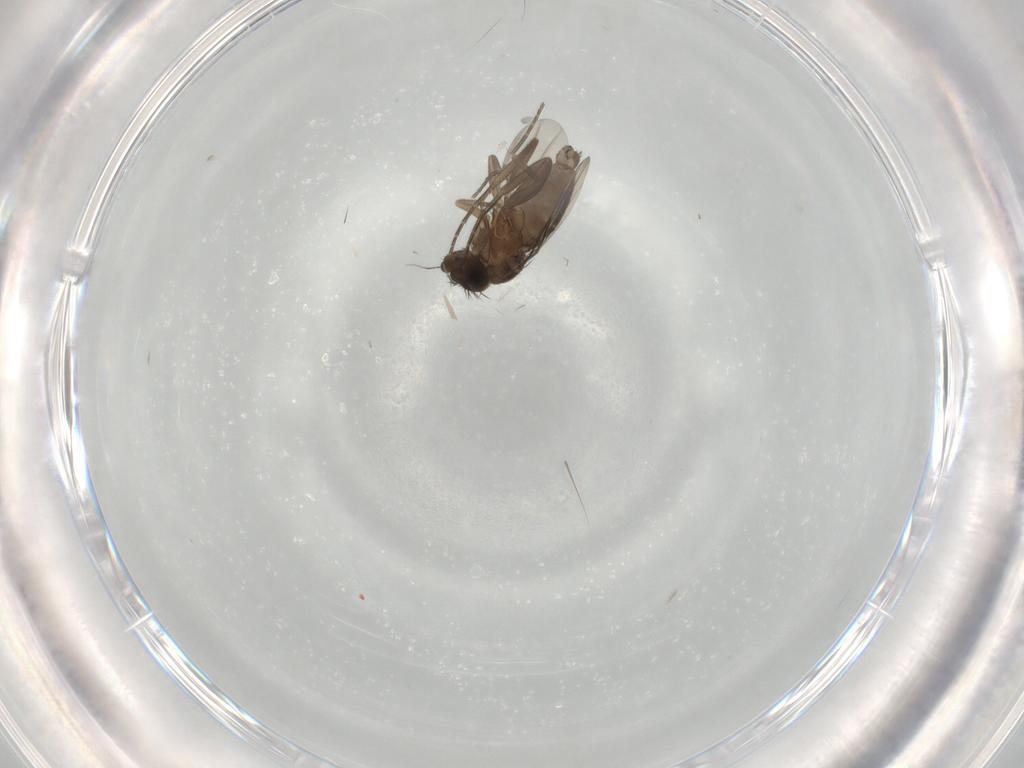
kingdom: Animalia
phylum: Arthropoda
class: Insecta
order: Diptera
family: Phoridae
